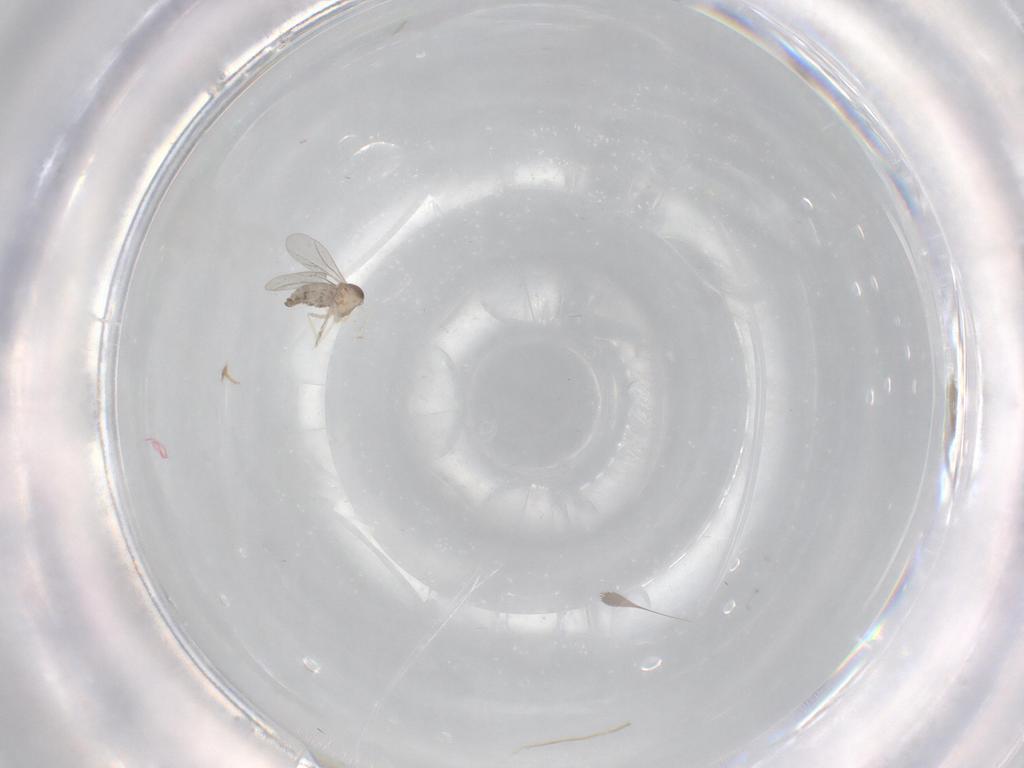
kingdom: Animalia
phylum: Arthropoda
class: Insecta
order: Diptera
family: Cecidomyiidae
